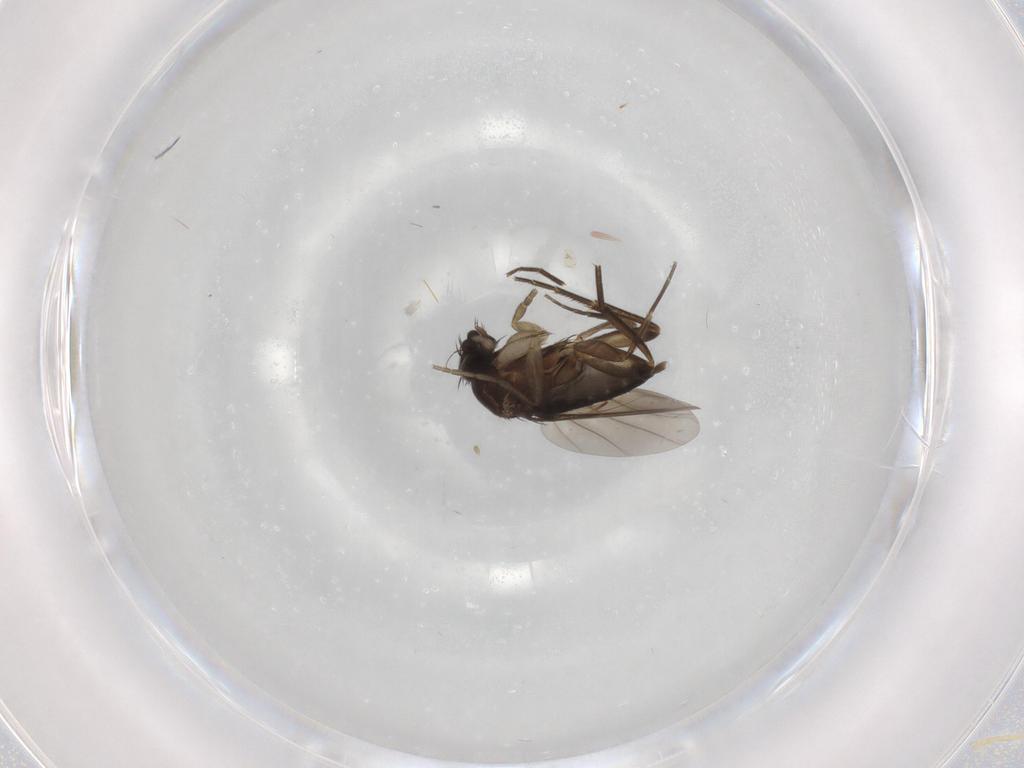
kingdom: Animalia
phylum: Arthropoda
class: Insecta
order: Diptera
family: Phoridae
